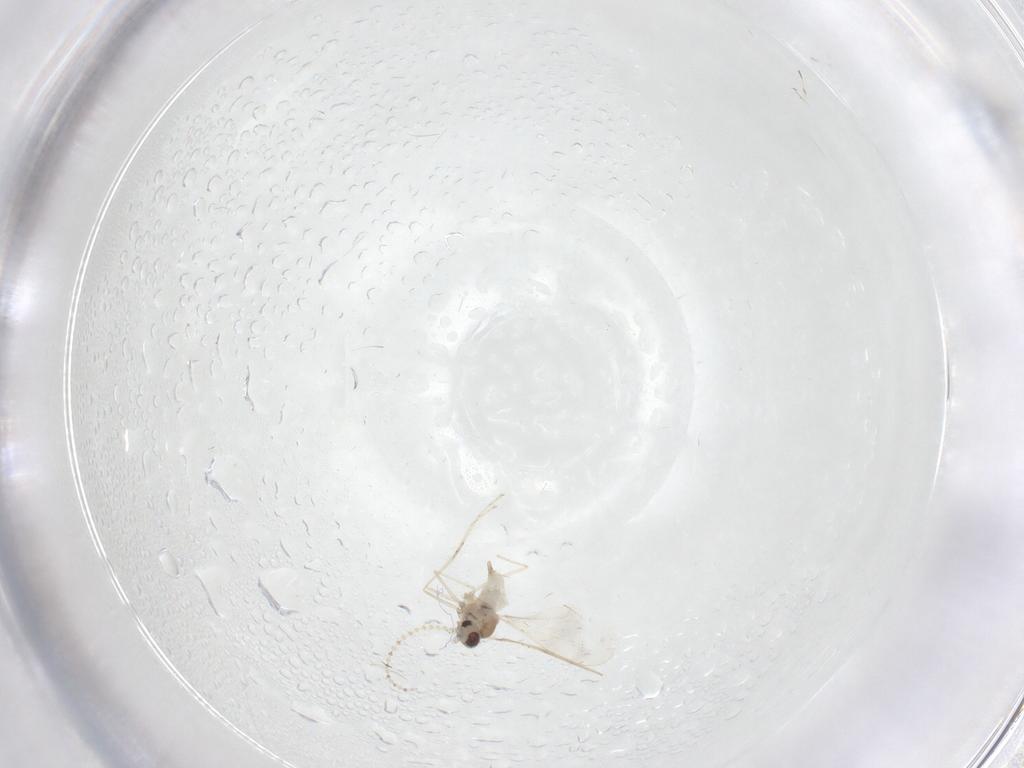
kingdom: Animalia
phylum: Arthropoda
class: Insecta
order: Diptera
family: Cecidomyiidae
